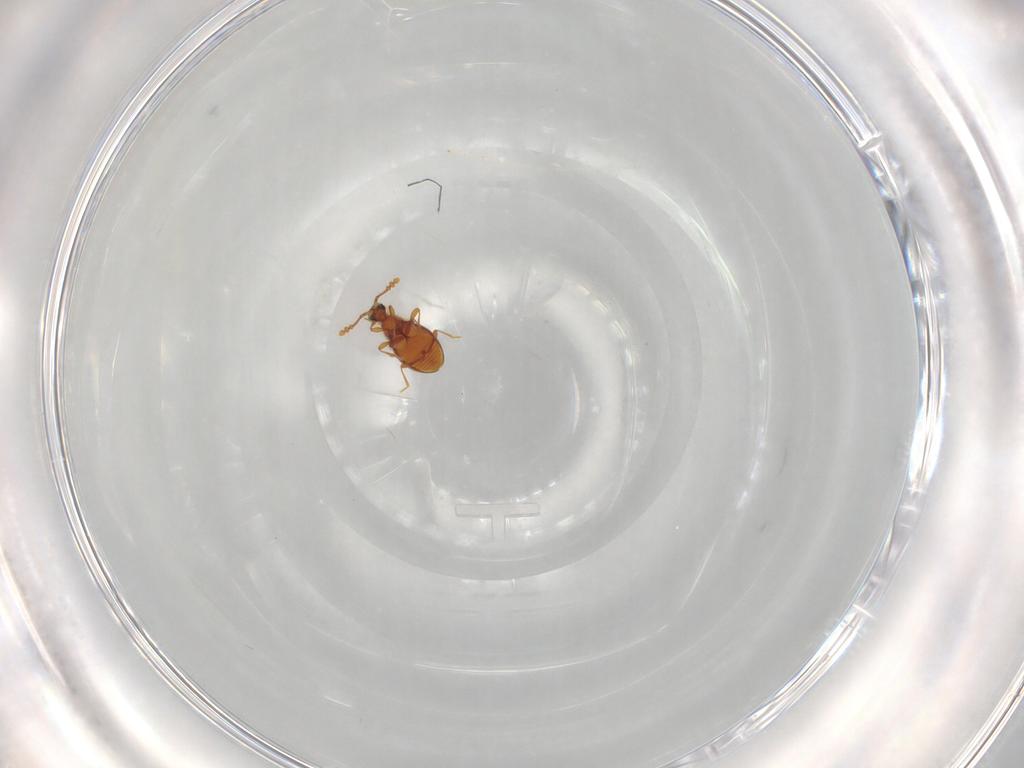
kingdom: Animalia
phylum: Arthropoda
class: Insecta
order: Coleoptera
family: Staphylinidae
